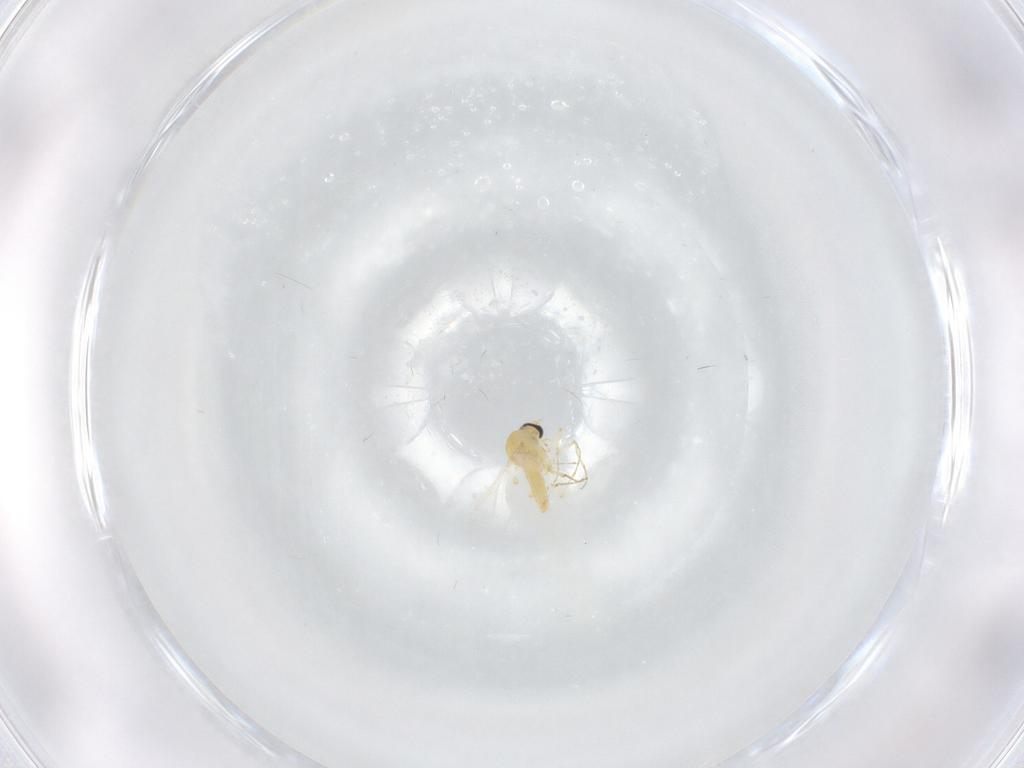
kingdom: Animalia
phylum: Arthropoda
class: Insecta
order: Diptera
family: Ceratopogonidae
